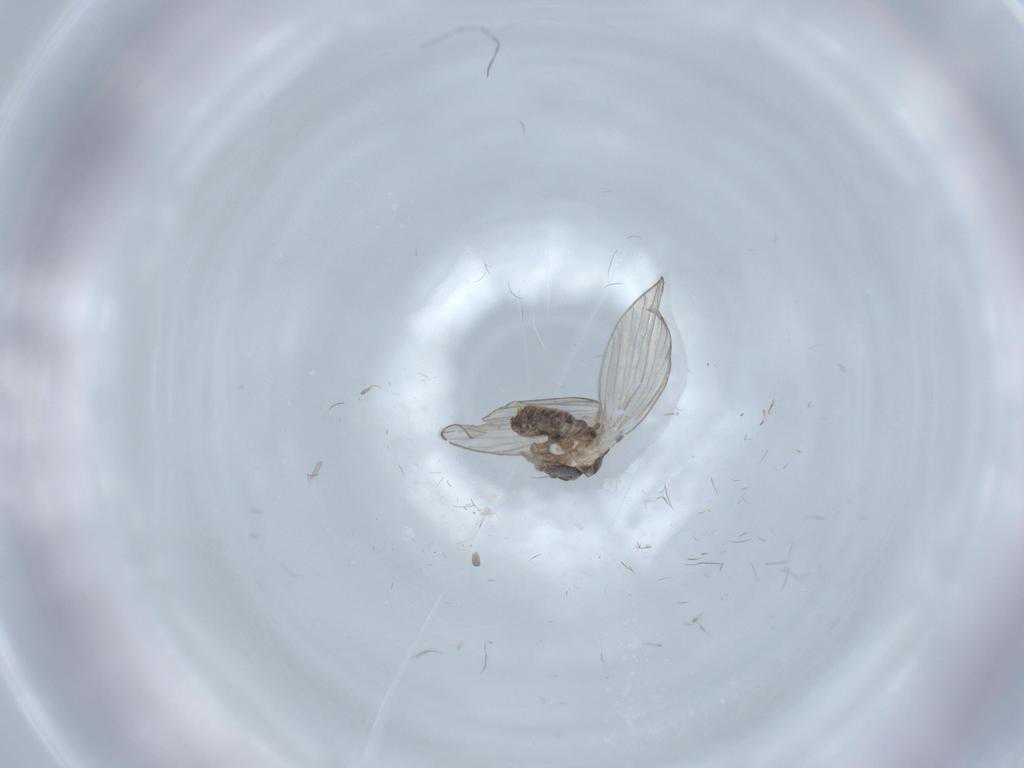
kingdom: Animalia
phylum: Arthropoda
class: Insecta
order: Diptera
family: Psychodidae
